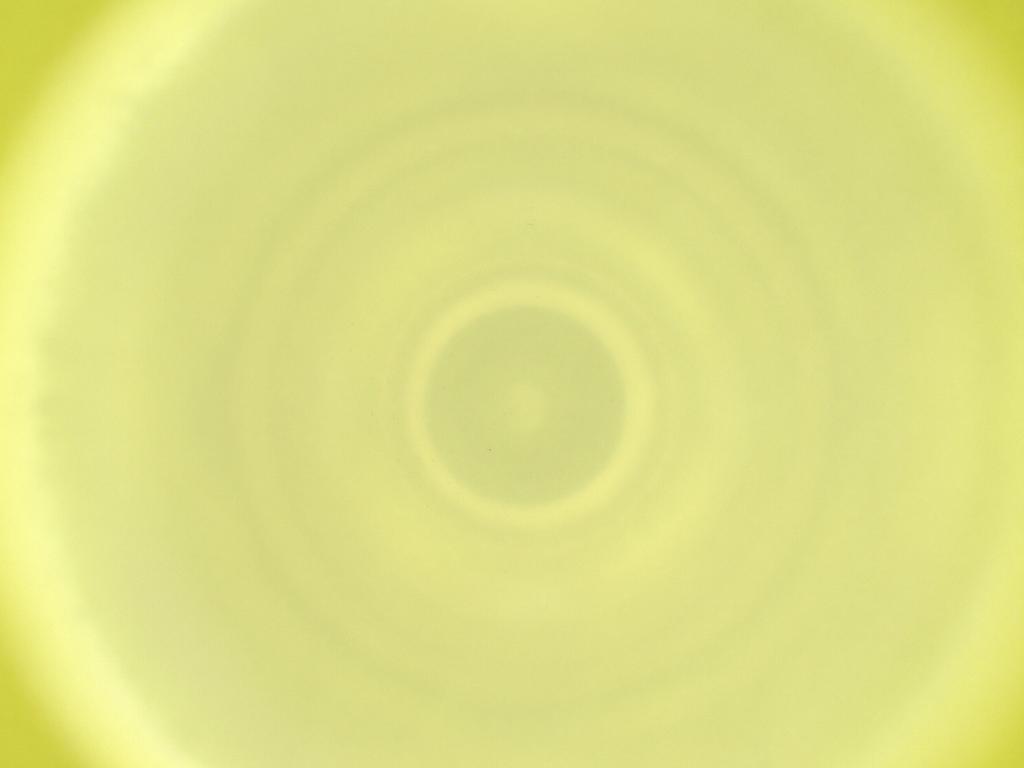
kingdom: Animalia
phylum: Arthropoda
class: Insecta
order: Diptera
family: Cecidomyiidae
